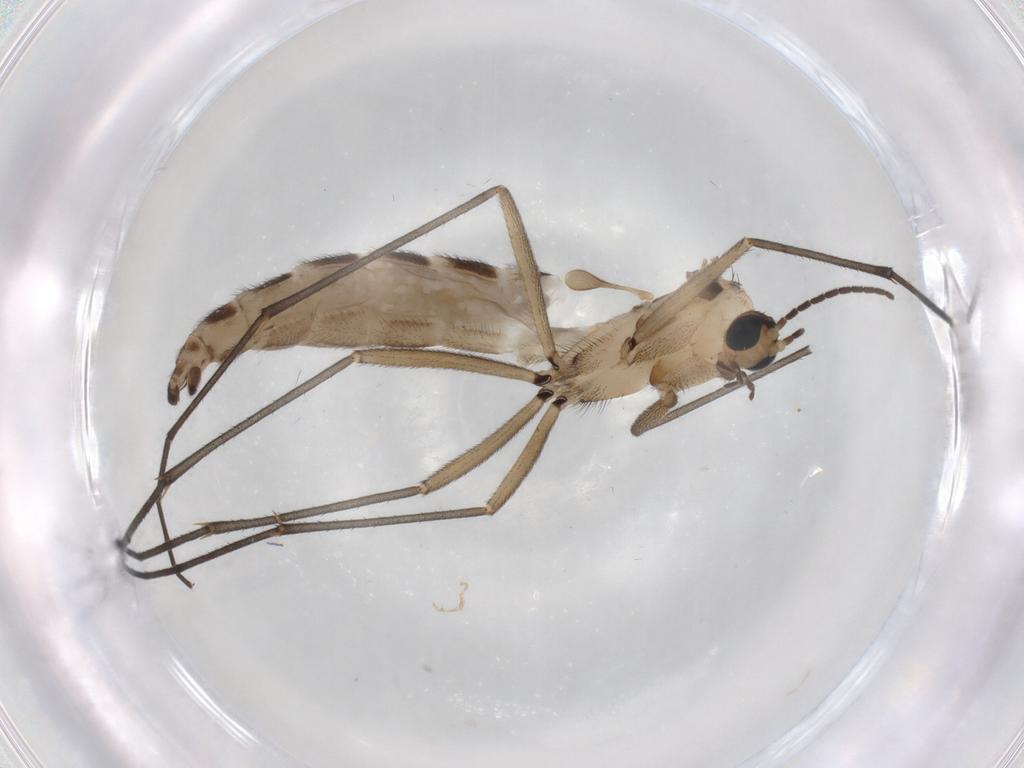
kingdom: Animalia
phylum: Arthropoda
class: Insecta
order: Diptera
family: Sciaridae
